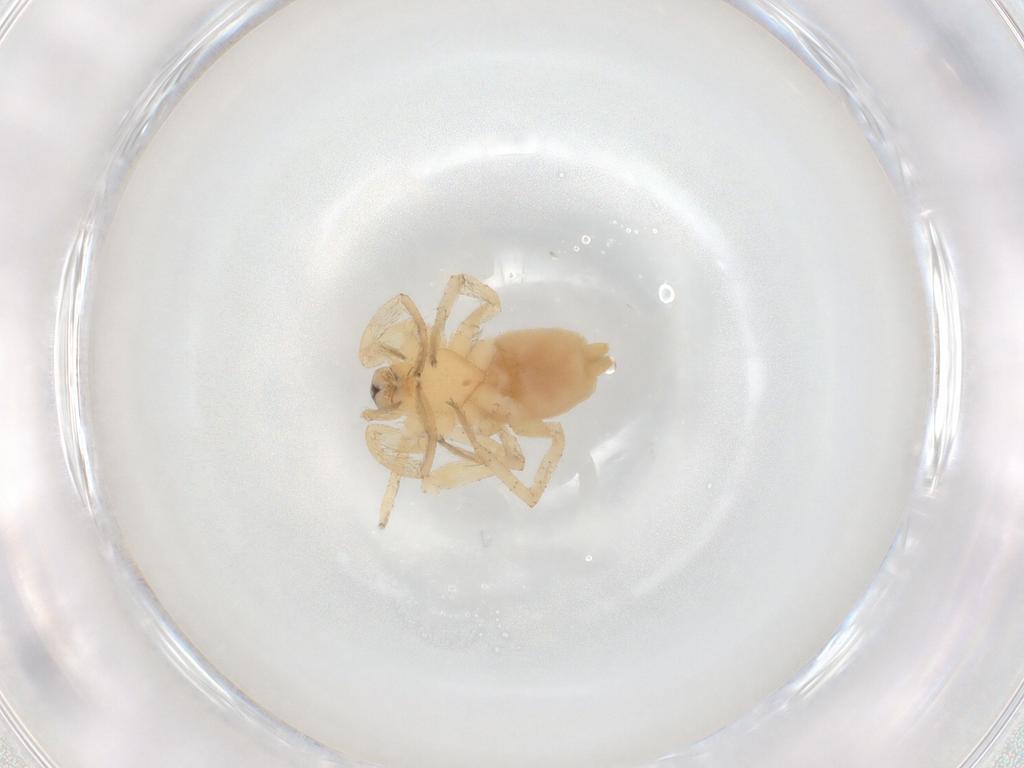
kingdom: Animalia
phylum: Arthropoda
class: Arachnida
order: Araneae
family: Gnaphosidae
